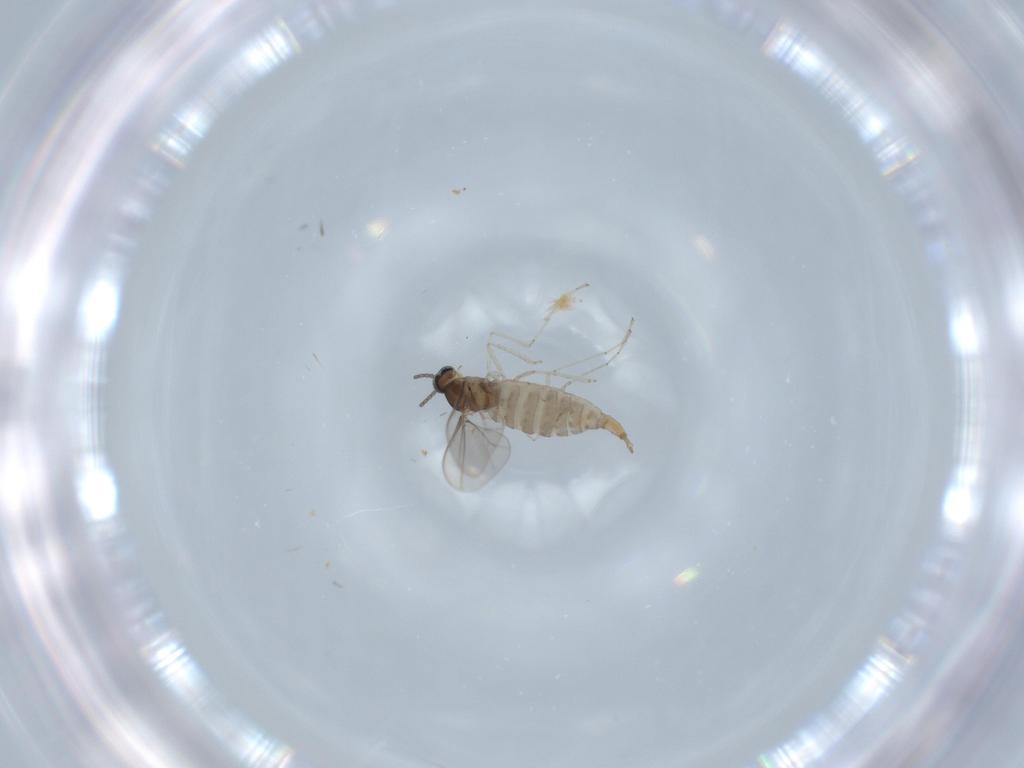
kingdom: Animalia
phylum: Arthropoda
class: Insecta
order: Diptera
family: Cecidomyiidae
